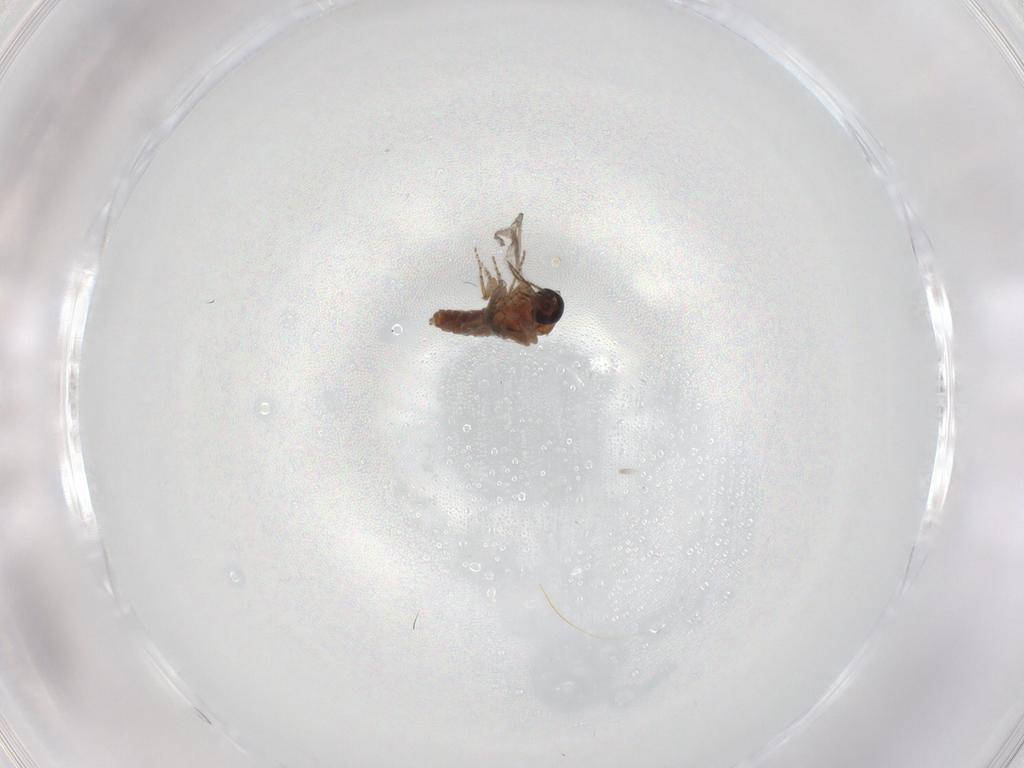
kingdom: Animalia
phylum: Arthropoda
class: Insecta
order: Diptera
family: Ceratopogonidae
